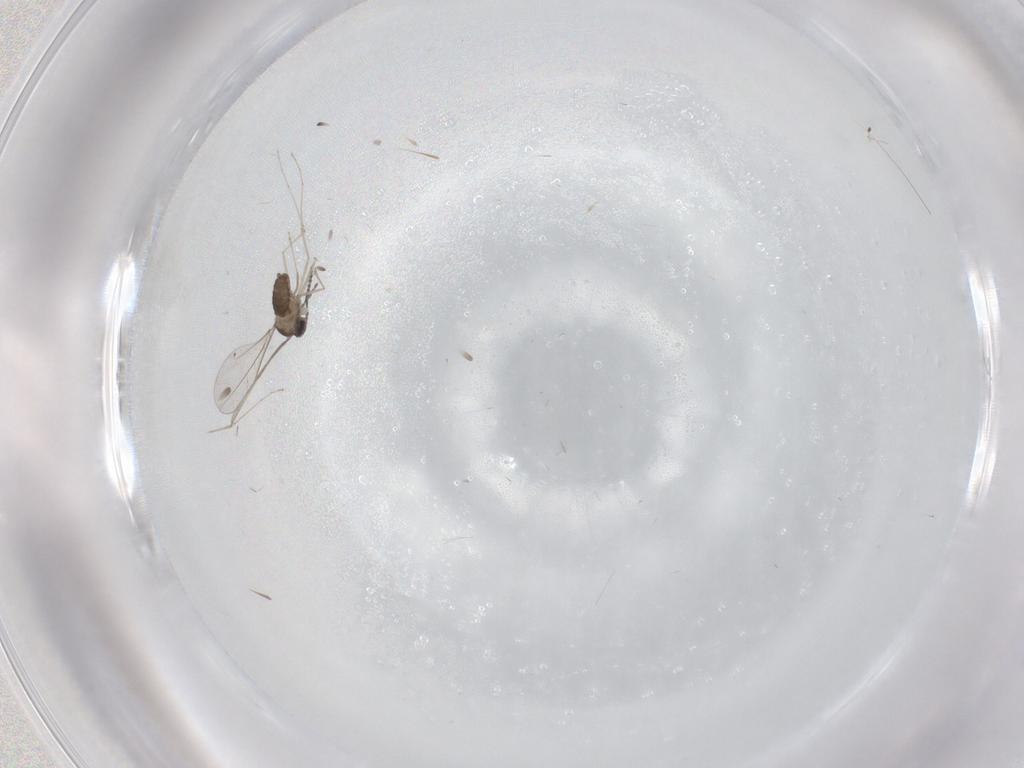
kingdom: Animalia
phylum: Arthropoda
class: Insecta
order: Diptera
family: Cecidomyiidae
